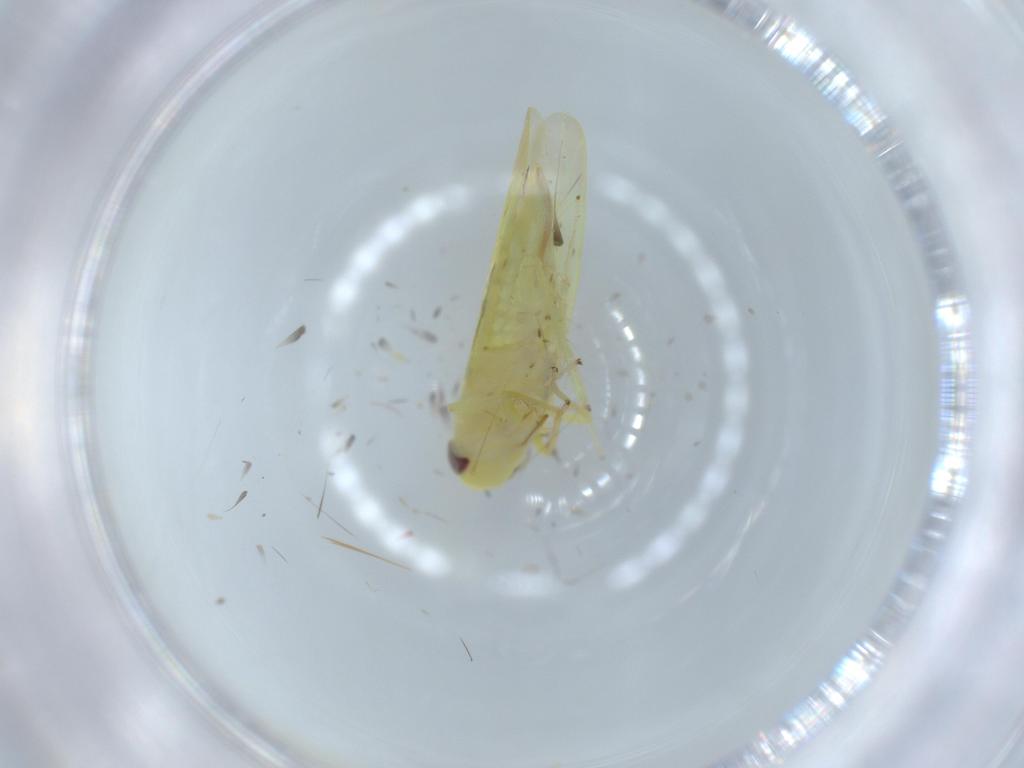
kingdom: Animalia
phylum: Arthropoda
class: Insecta
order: Hemiptera
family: Cicadellidae
